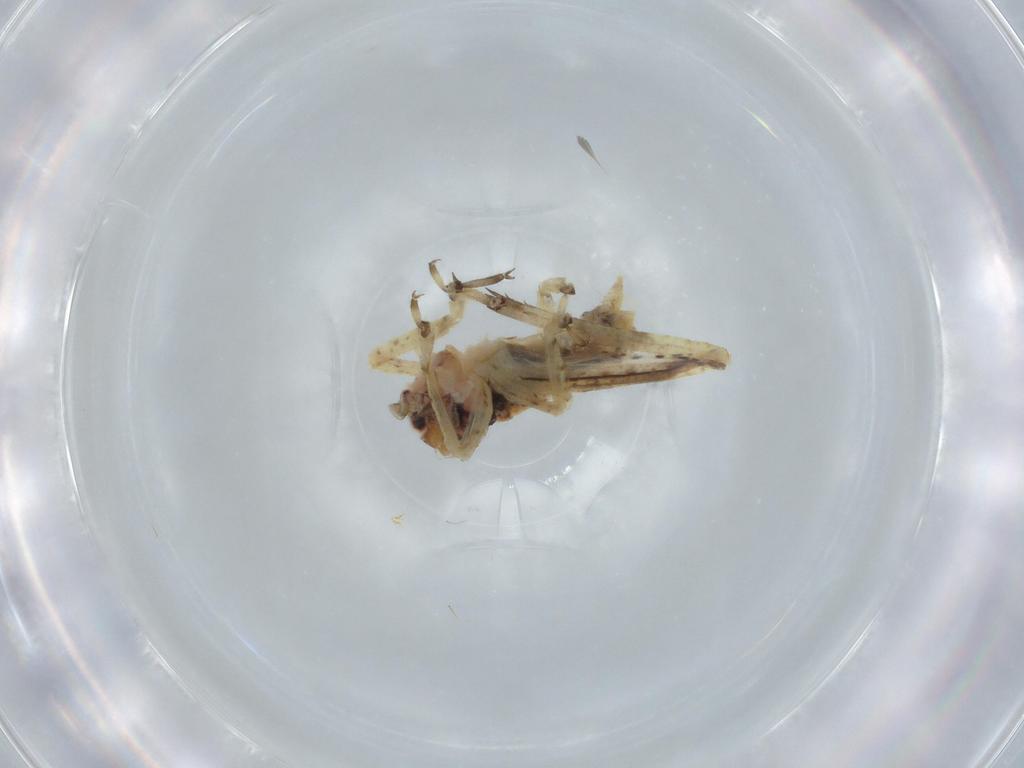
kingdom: Animalia
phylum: Arthropoda
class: Insecta
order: Orthoptera
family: Gryllidae
